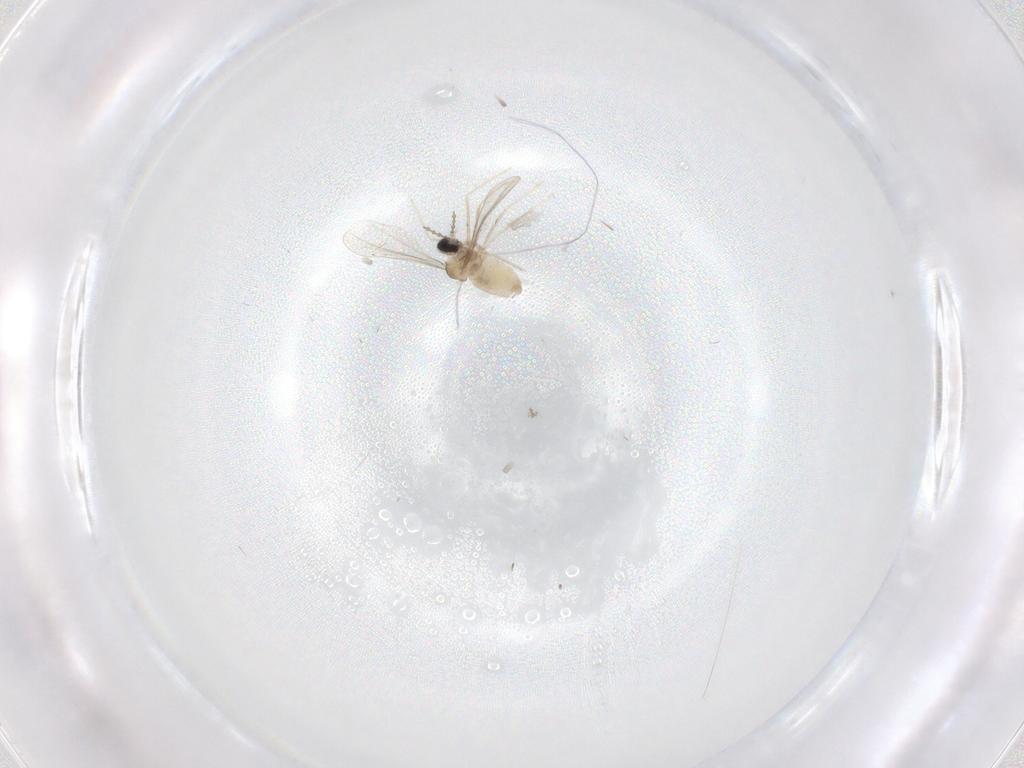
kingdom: Animalia
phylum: Arthropoda
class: Insecta
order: Diptera
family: Cecidomyiidae
